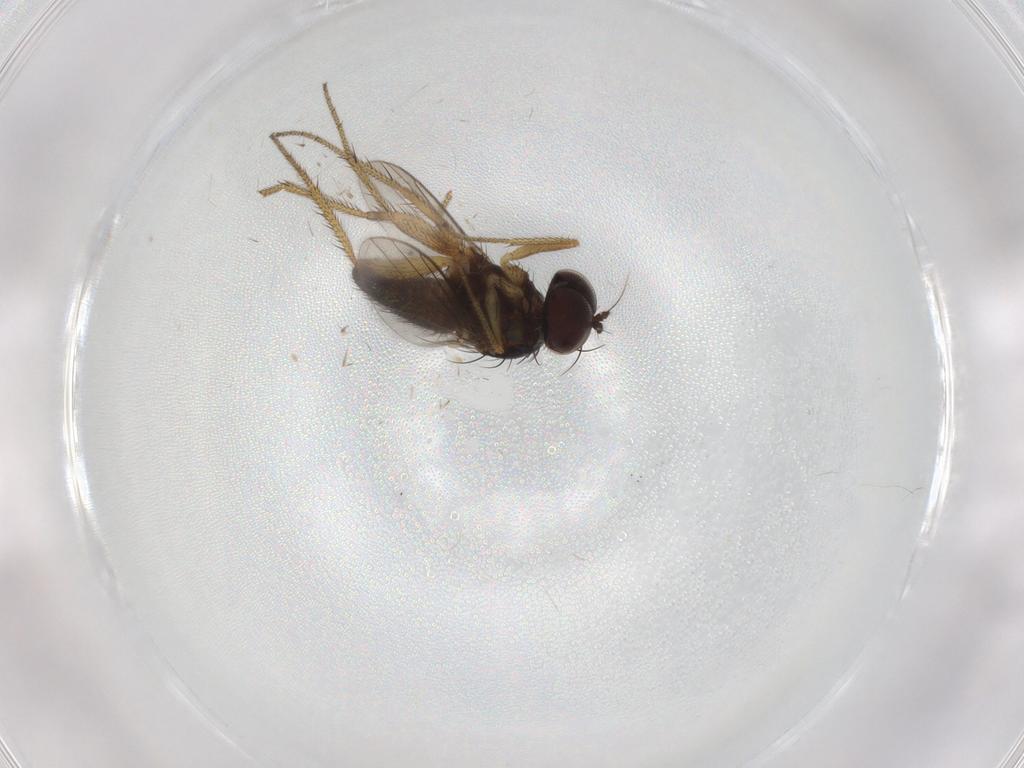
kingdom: Animalia
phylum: Arthropoda
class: Insecta
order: Diptera
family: Dolichopodidae
